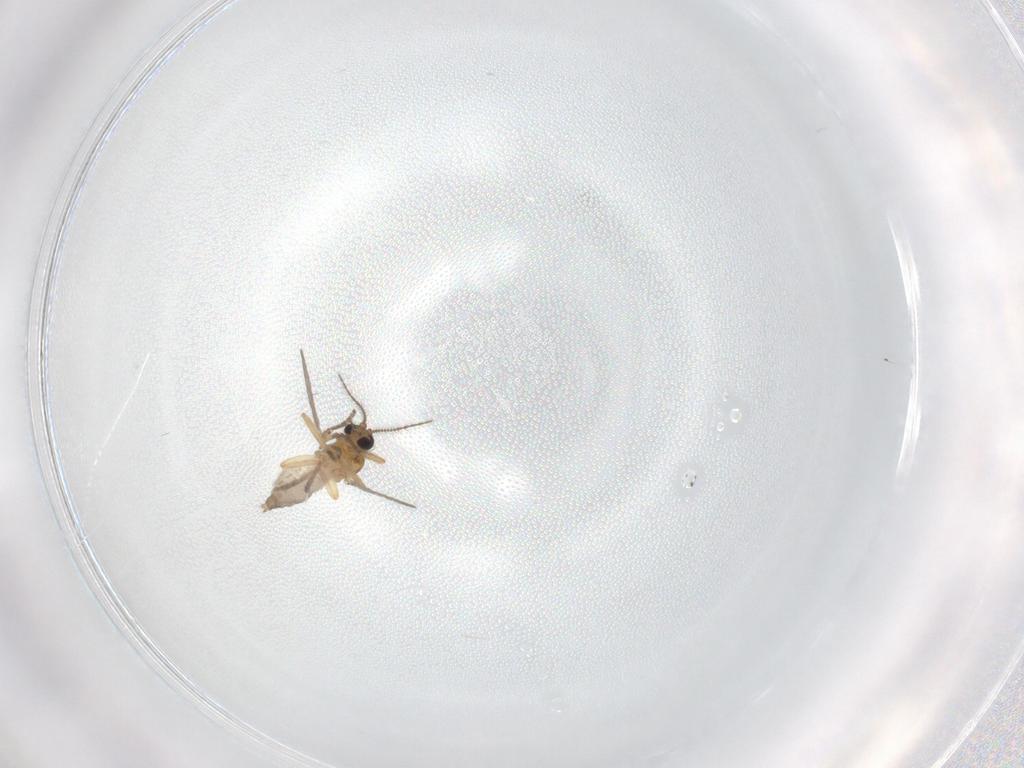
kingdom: Animalia
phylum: Arthropoda
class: Insecta
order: Diptera
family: Ceratopogonidae
